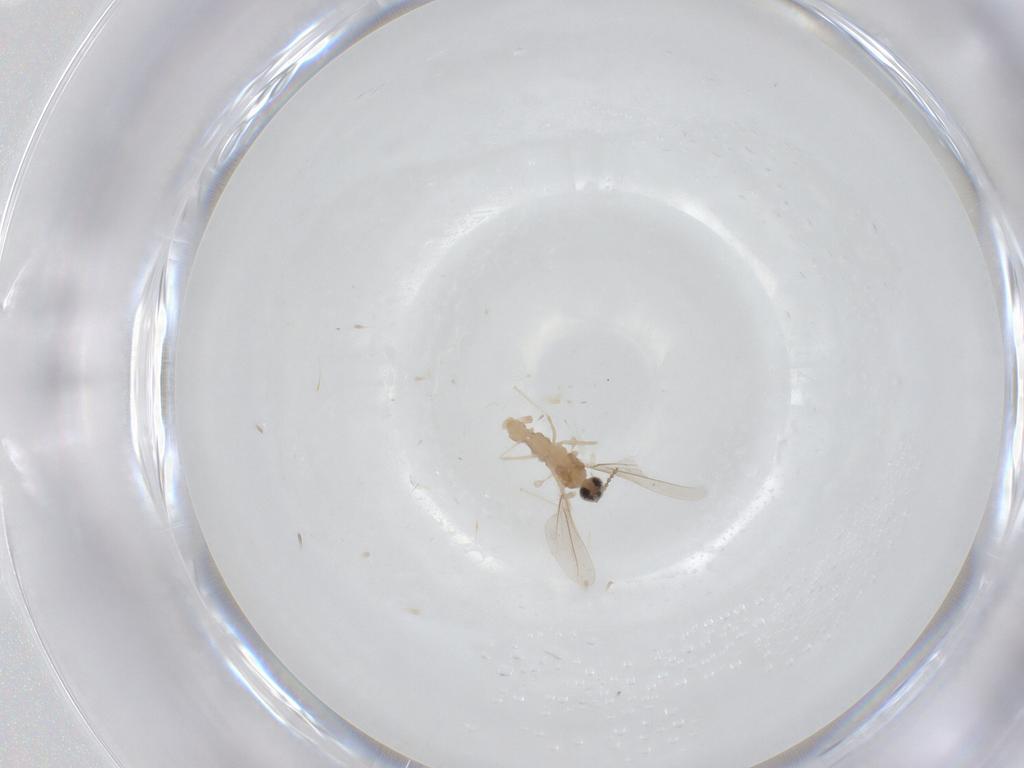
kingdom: Animalia
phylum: Arthropoda
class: Insecta
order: Diptera
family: Cecidomyiidae
